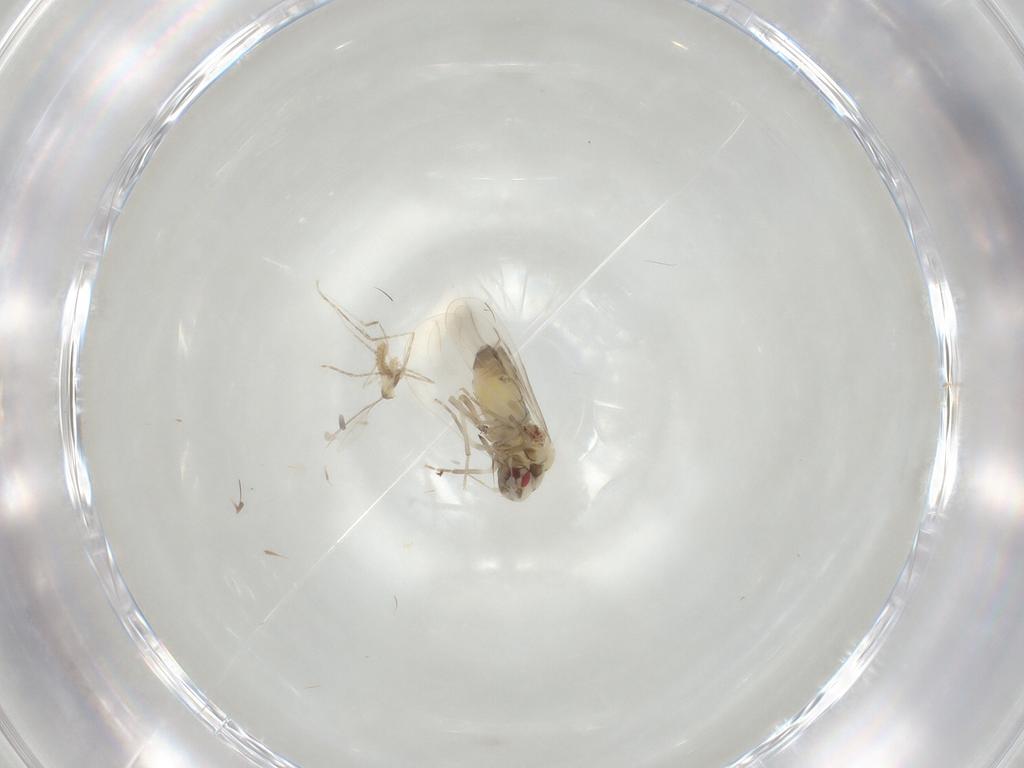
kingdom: Animalia
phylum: Arthropoda
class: Insecta
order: Hemiptera
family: Aleyrodidae
